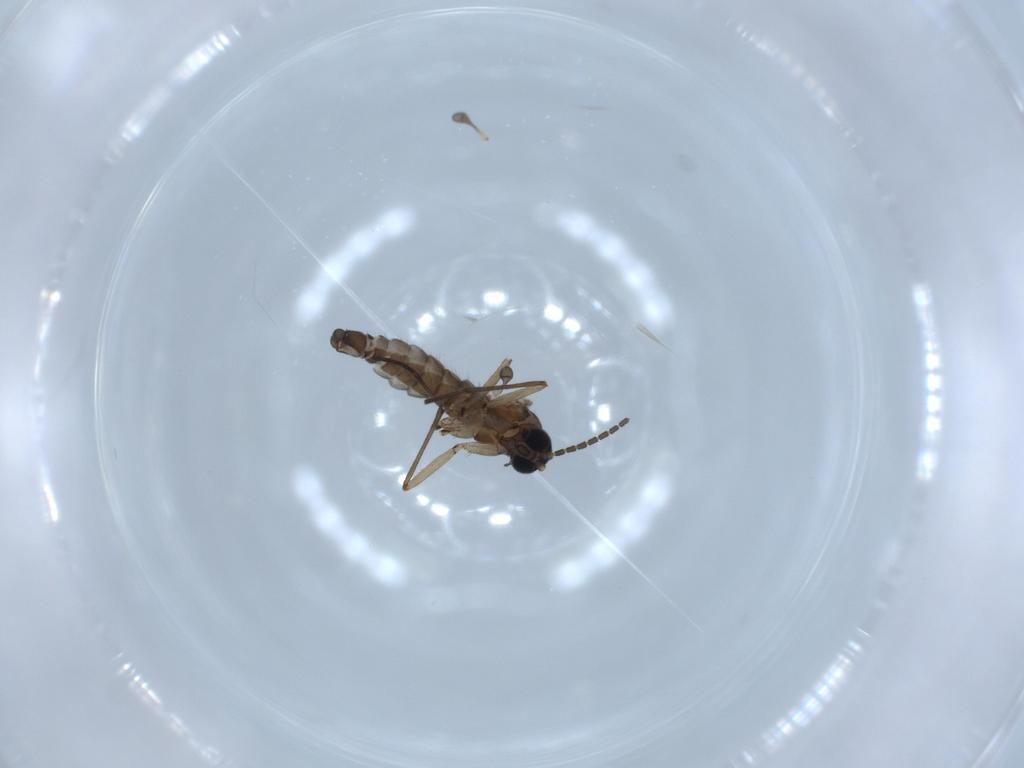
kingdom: Animalia
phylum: Arthropoda
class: Insecta
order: Diptera
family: Sciaridae
